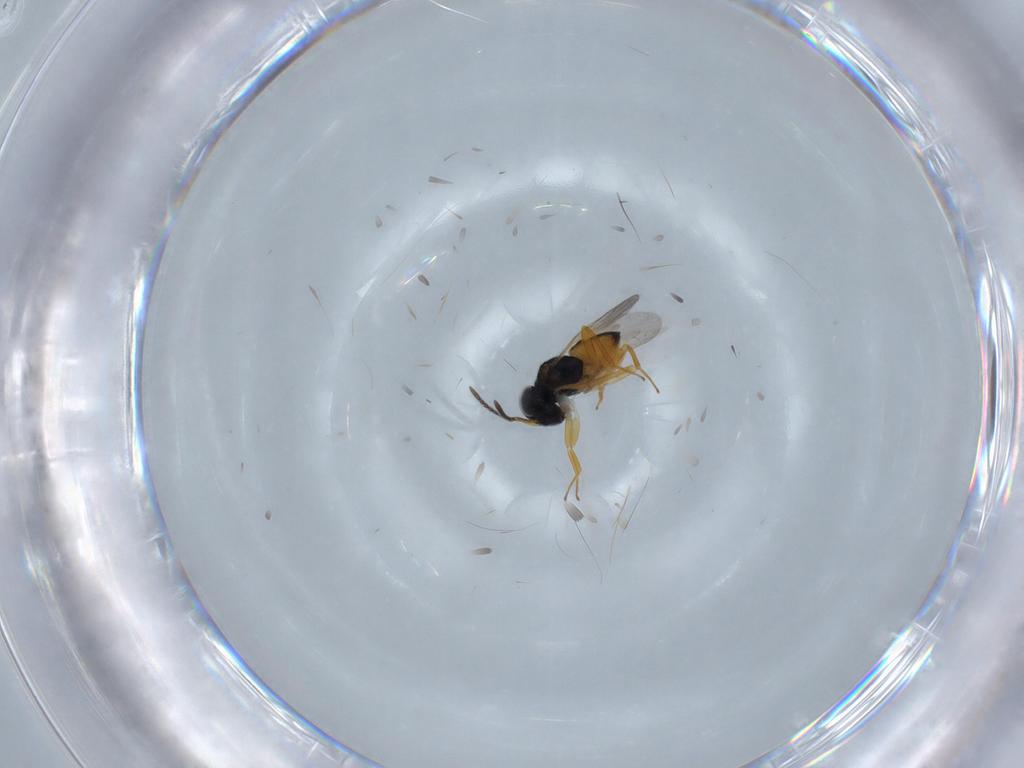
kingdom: Animalia
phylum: Arthropoda
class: Insecta
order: Hymenoptera
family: Encyrtidae
